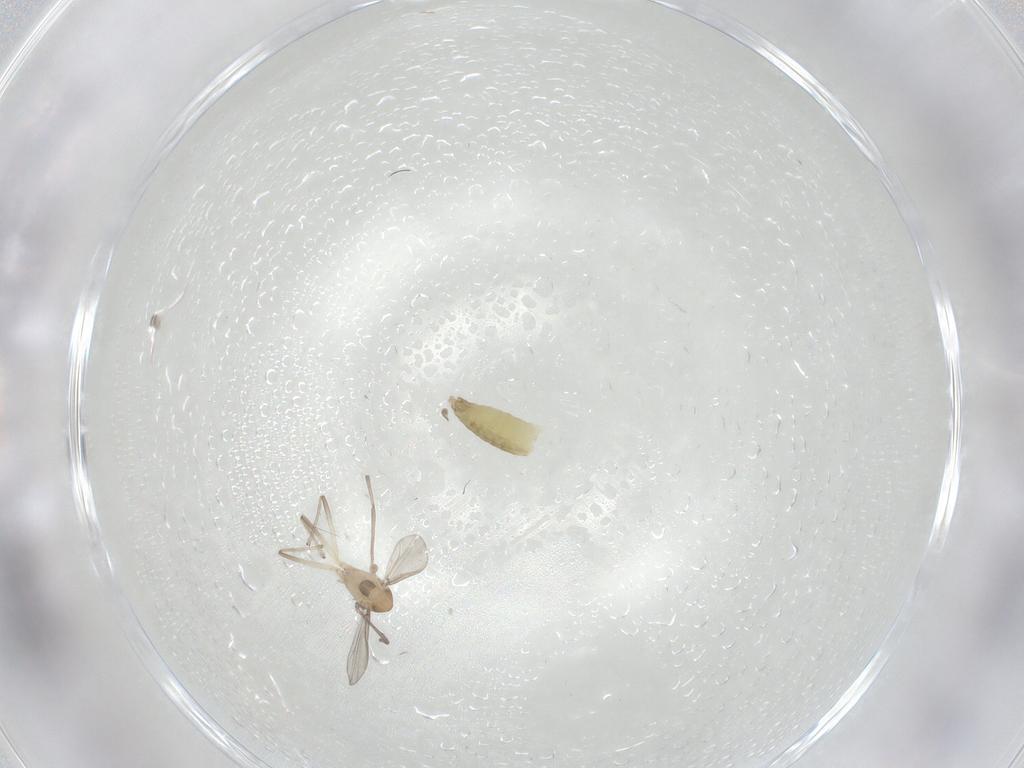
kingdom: Animalia
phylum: Arthropoda
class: Insecta
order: Diptera
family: Chironomidae
